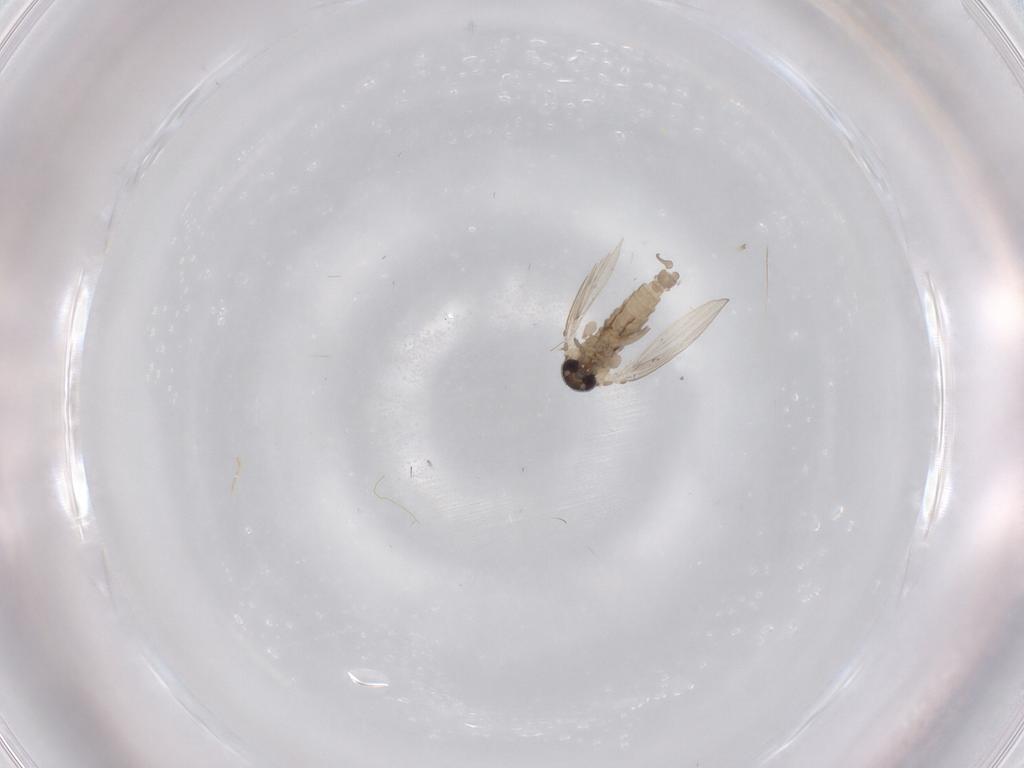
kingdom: Animalia
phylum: Arthropoda
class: Insecta
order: Diptera
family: Psychodidae
